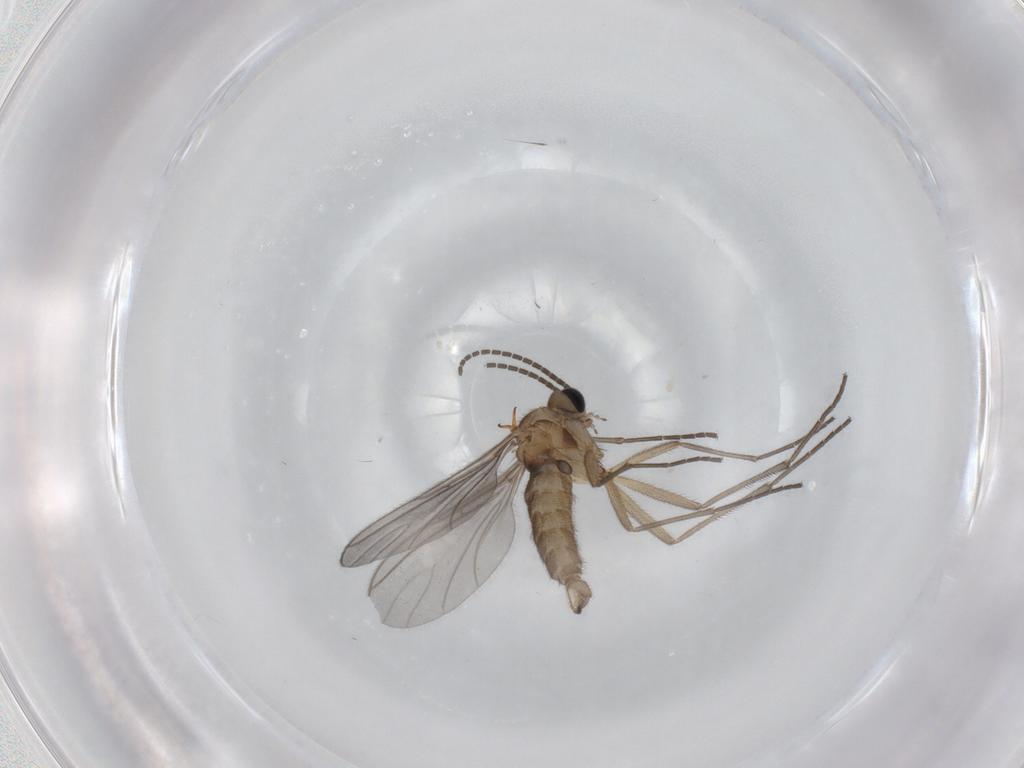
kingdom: Animalia
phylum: Arthropoda
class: Insecta
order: Diptera
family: Phoridae
